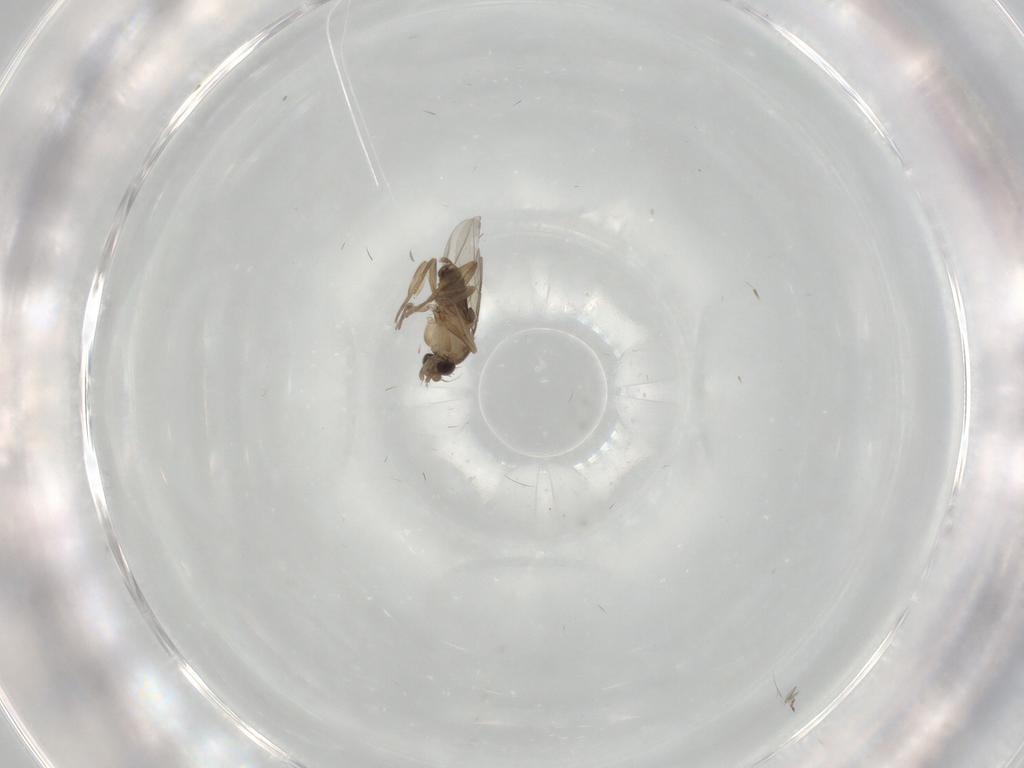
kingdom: Animalia
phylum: Arthropoda
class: Insecta
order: Diptera
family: Phoridae
